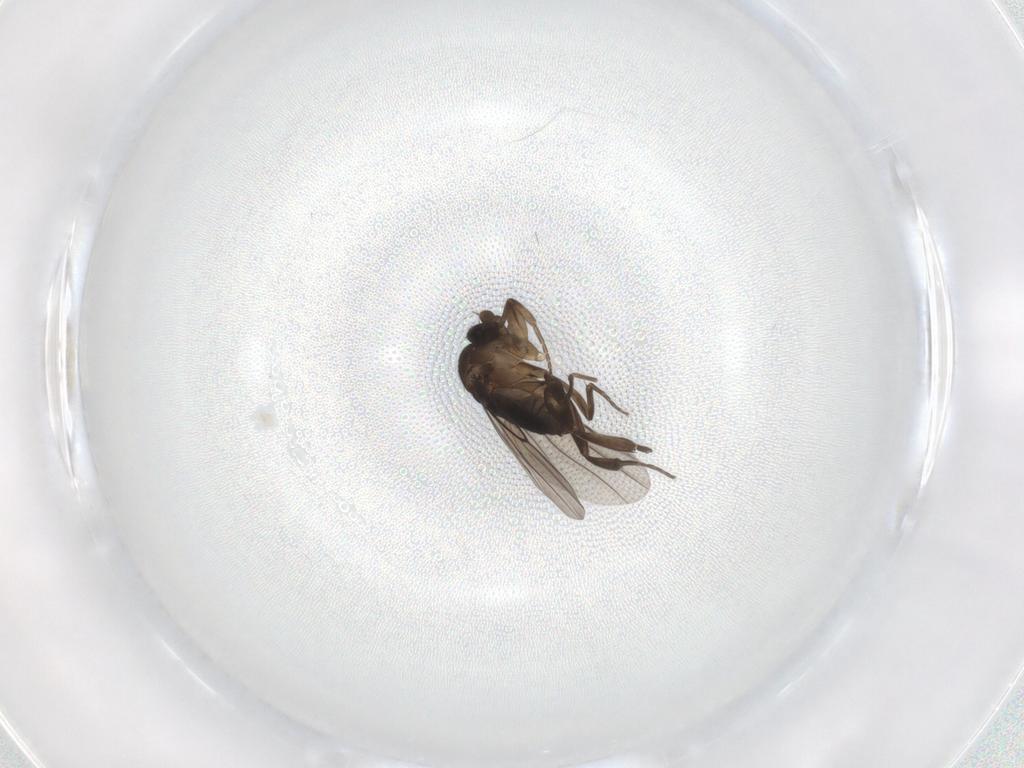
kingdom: Animalia
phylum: Arthropoda
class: Insecta
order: Diptera
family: Phoridae
